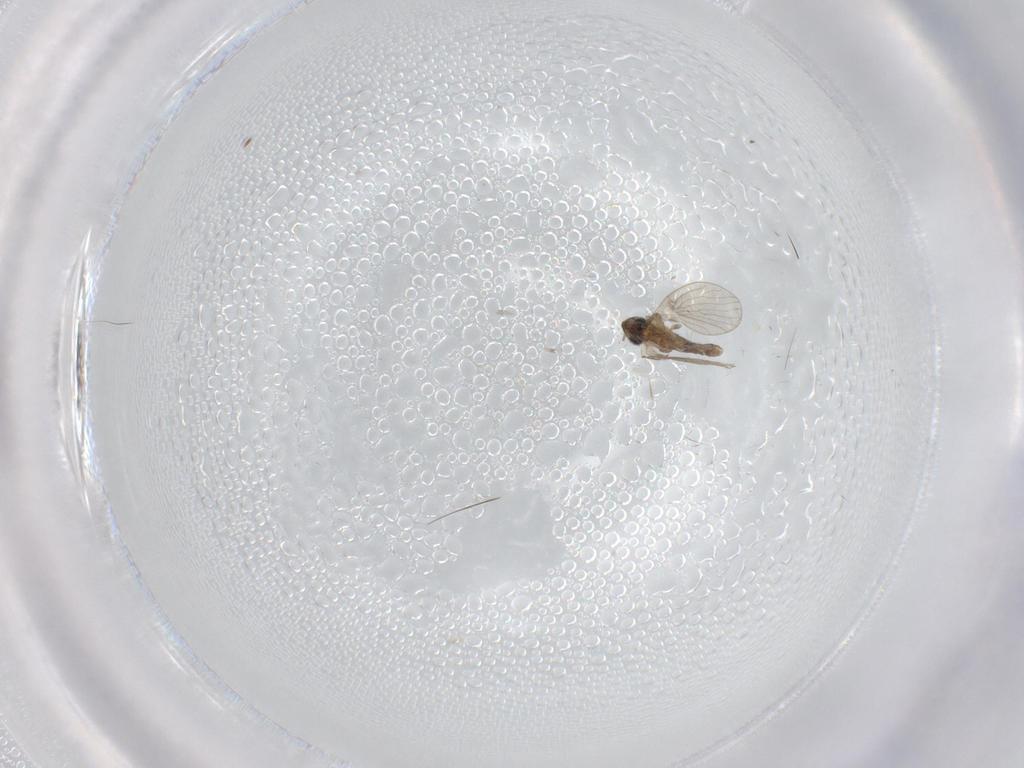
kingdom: Animalia
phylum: Arthropoda
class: Insecta
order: Diptera
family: Psychodidae
